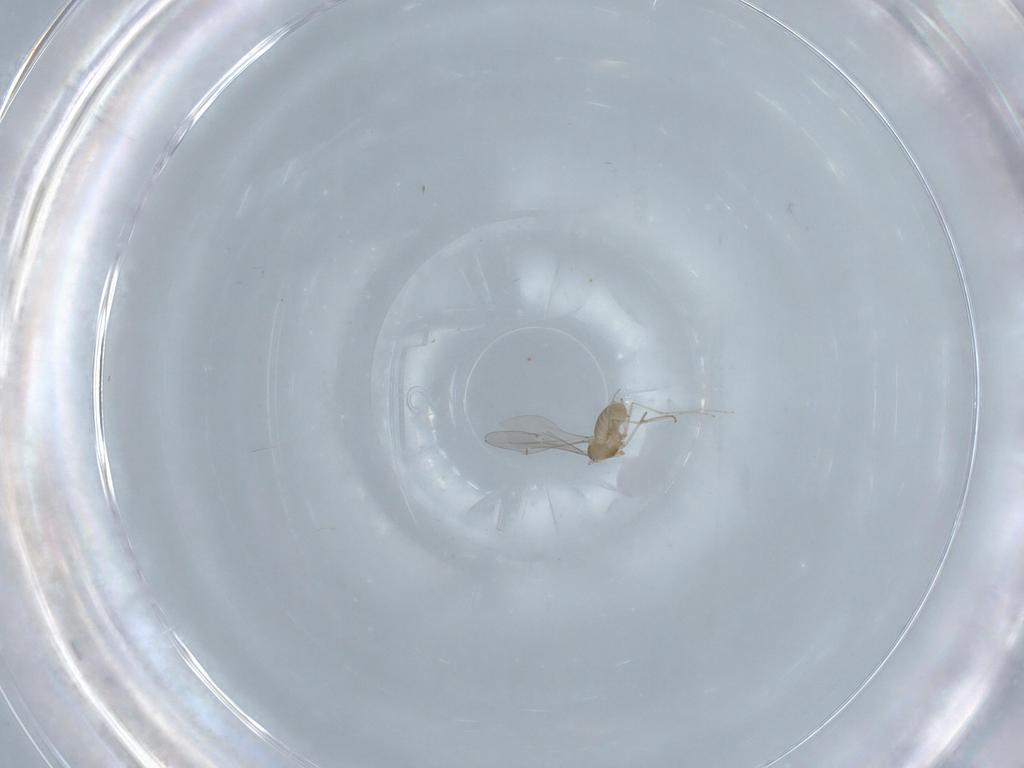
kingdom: Animalia
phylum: Arthropoda
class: Insecta
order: Diptera
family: Cecidomyiidae
